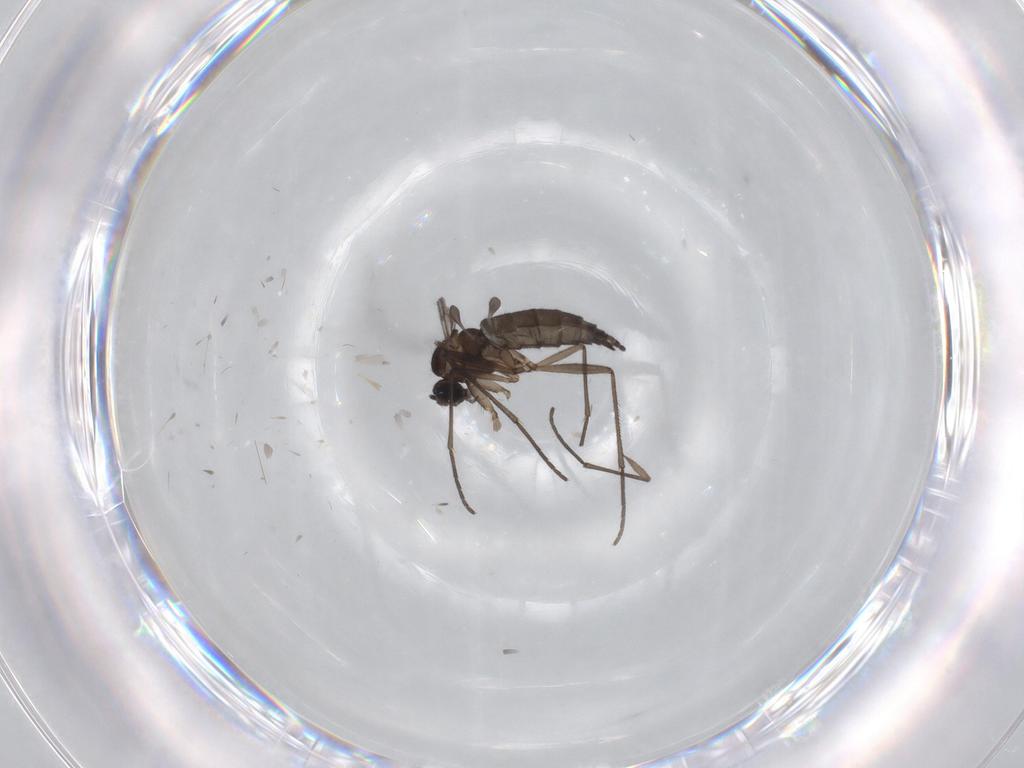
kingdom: Animalia
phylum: Arthropoda
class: Insecta
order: Diptera
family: Sciaridae
